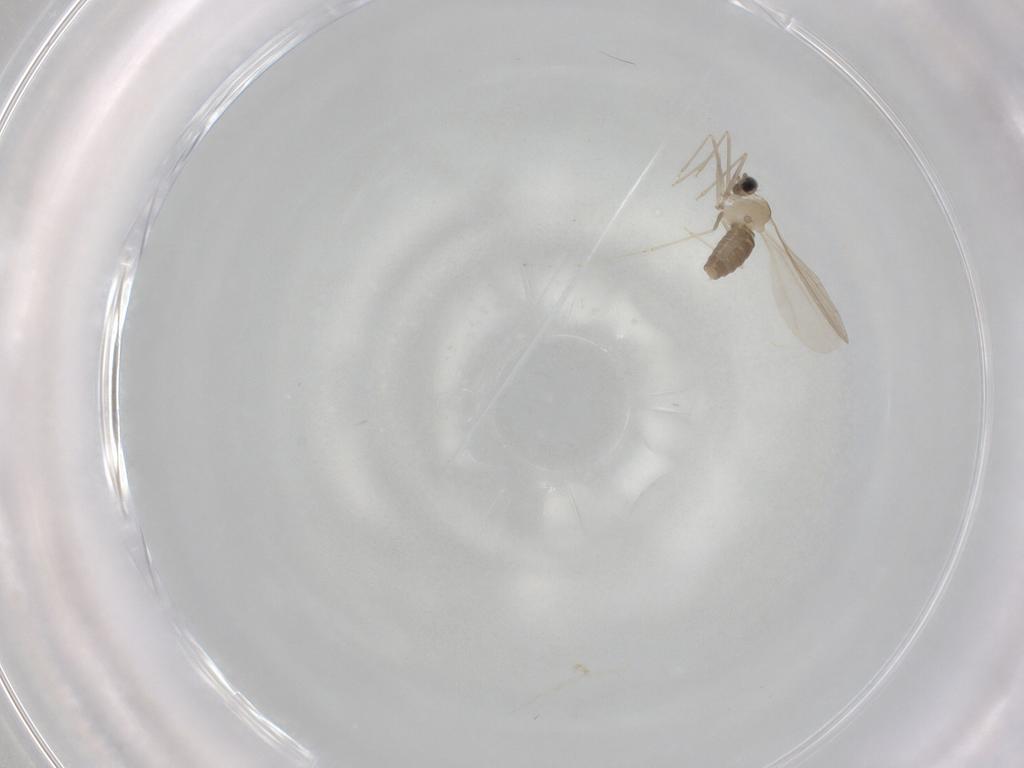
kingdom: Animalia
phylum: Arthropoda
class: Insecta
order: Diptera
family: Cecidomyiidae
